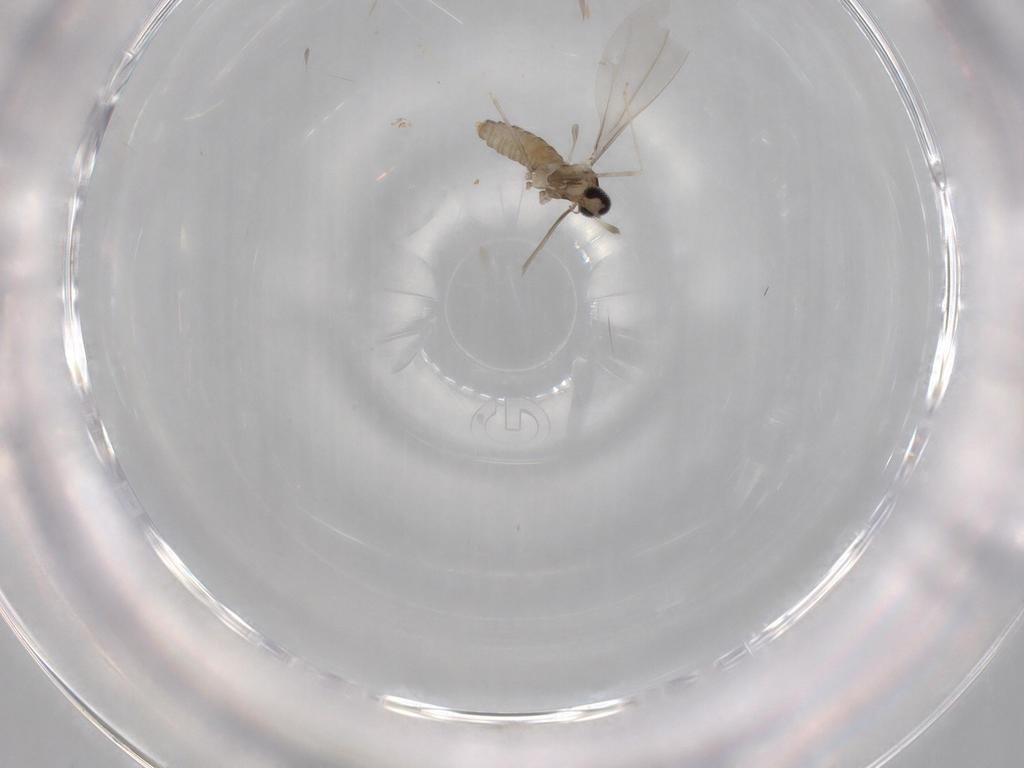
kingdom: Animalia
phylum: Arthropoda
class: Insecta
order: Diptera
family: Cecidomyiidae
